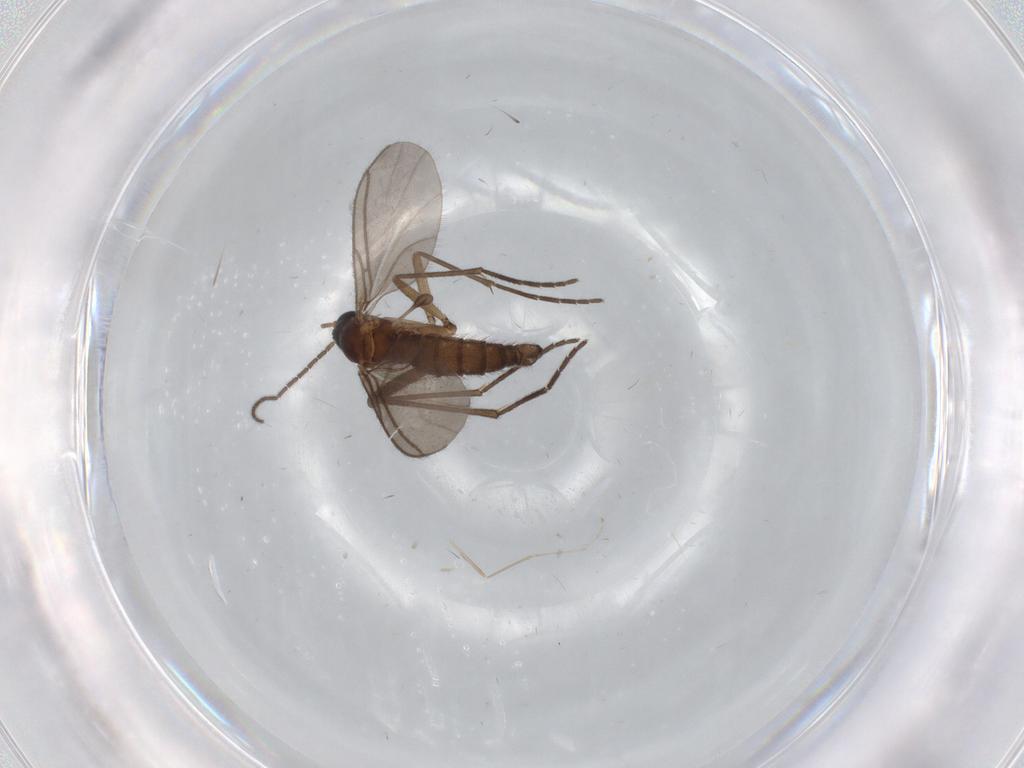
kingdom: Animalia
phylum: Arthropoda
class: Insecta
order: Diptera
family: Cecidomyiidae
